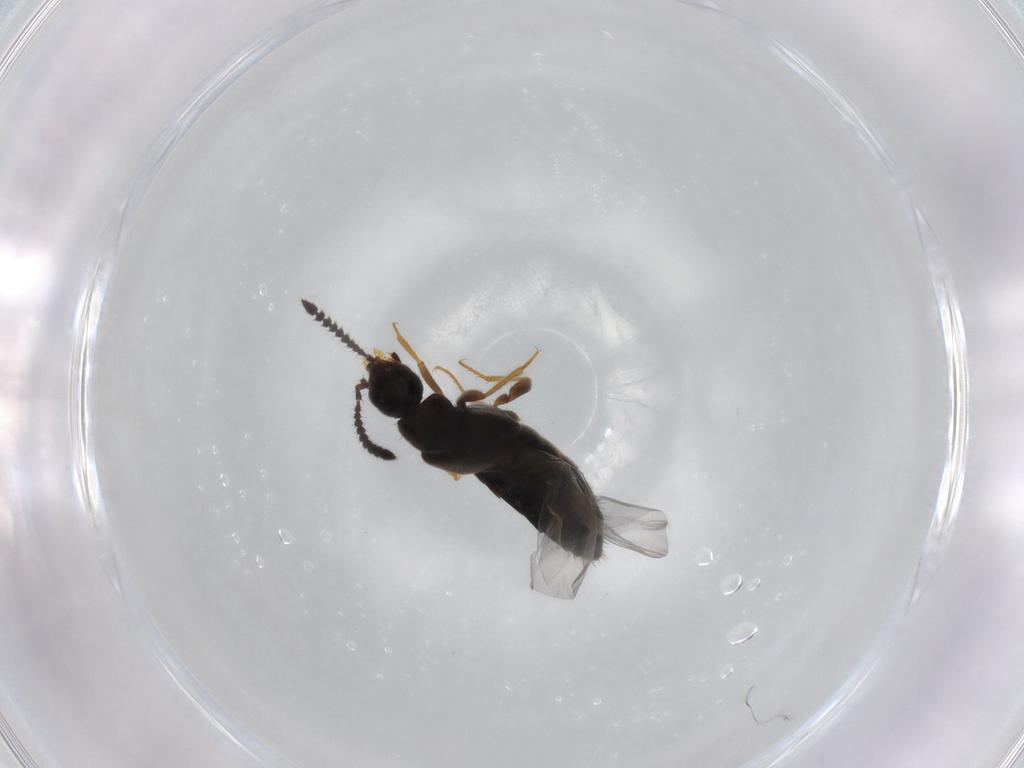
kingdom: Animalia
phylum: Arthropoda
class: Insecta
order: Coleoptera
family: Staphylinidae
